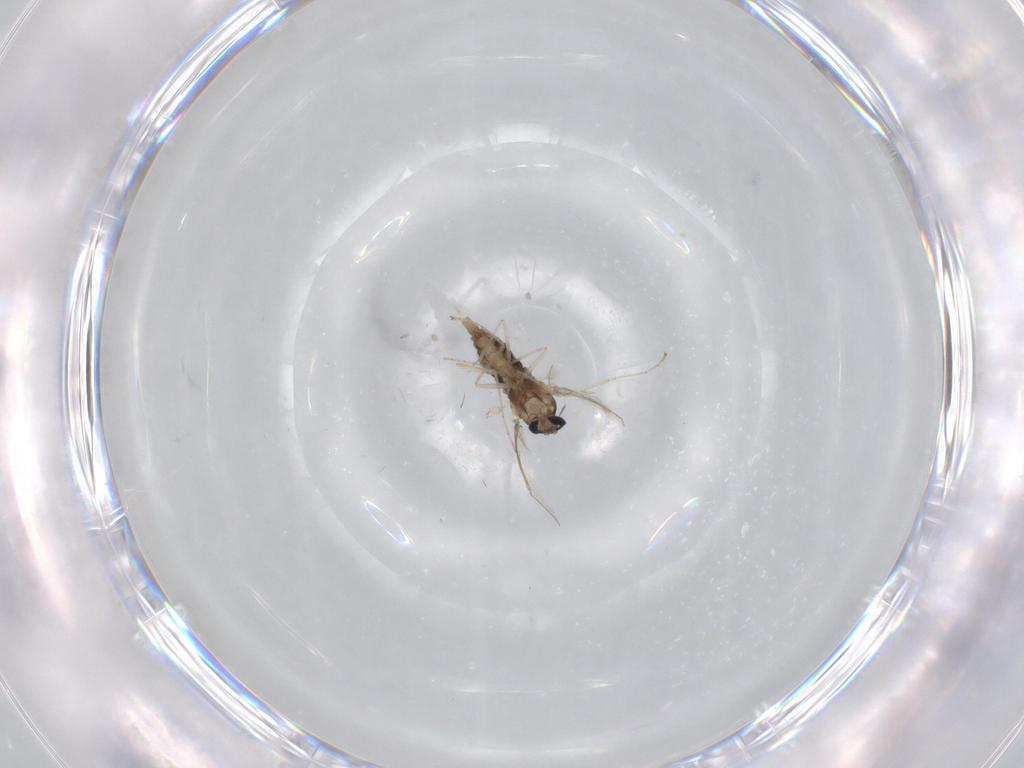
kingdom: Animalia
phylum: Arthropoda
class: Insecta
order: Diptera
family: Cecidomyiidae
